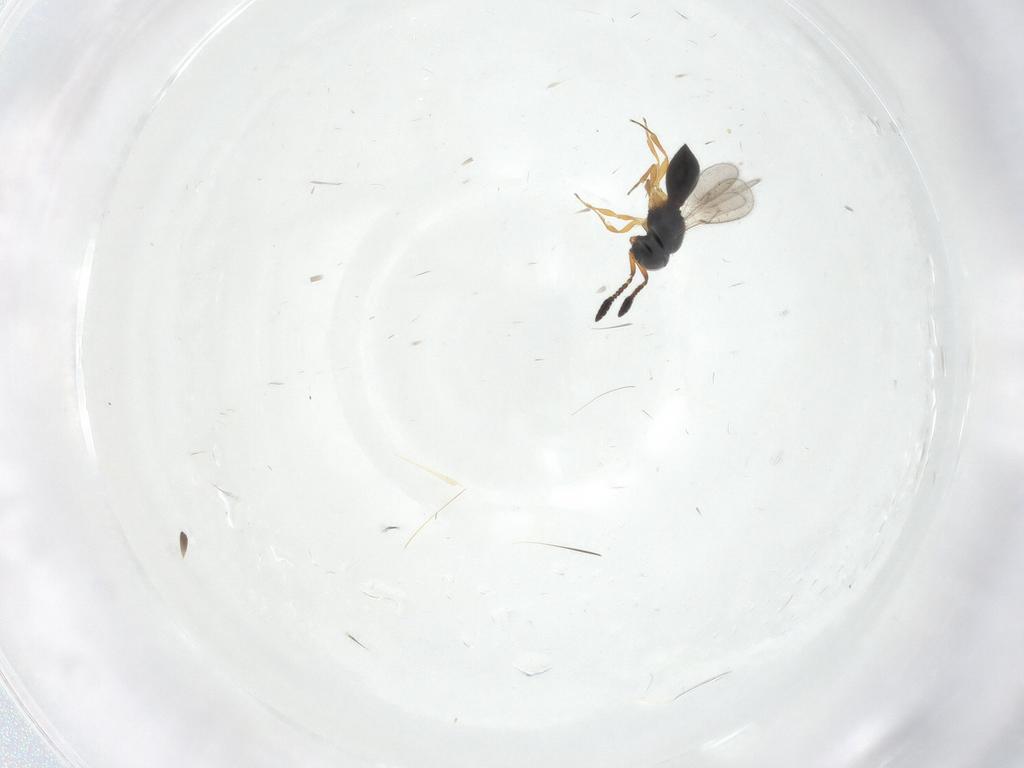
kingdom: Animalia
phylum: Arthropoda
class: Insecta
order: Hymenoptera
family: Scelionidae
